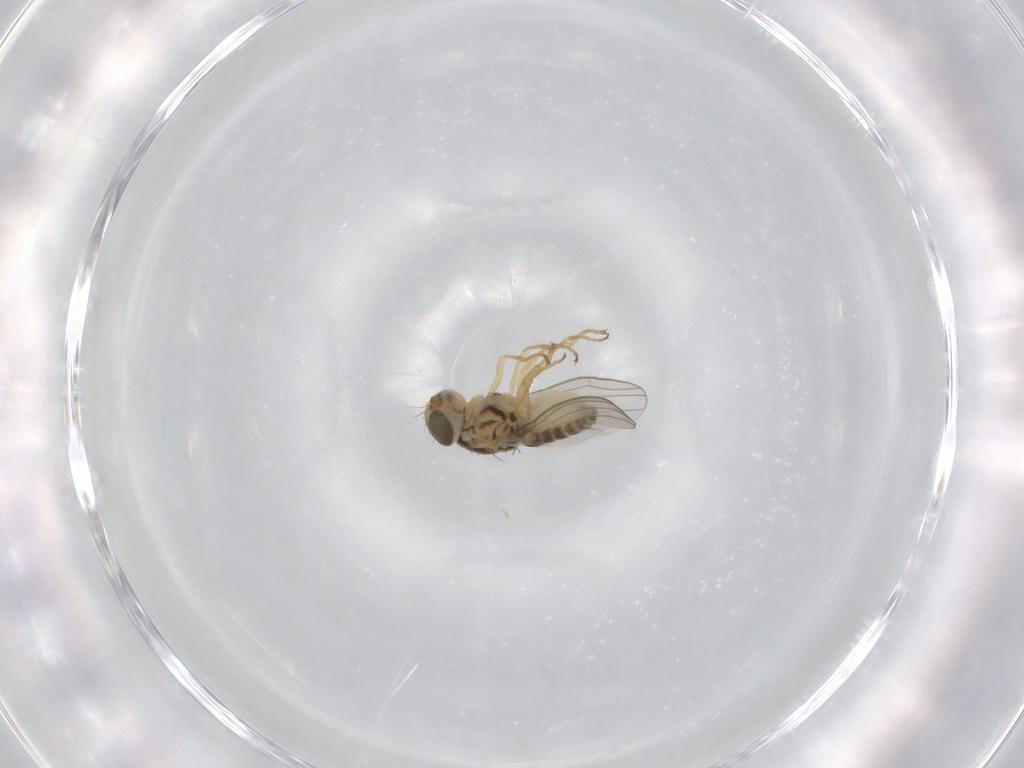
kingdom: Animalia
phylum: Arthropoda
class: Insecta
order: Diptera
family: Chyromyidae
